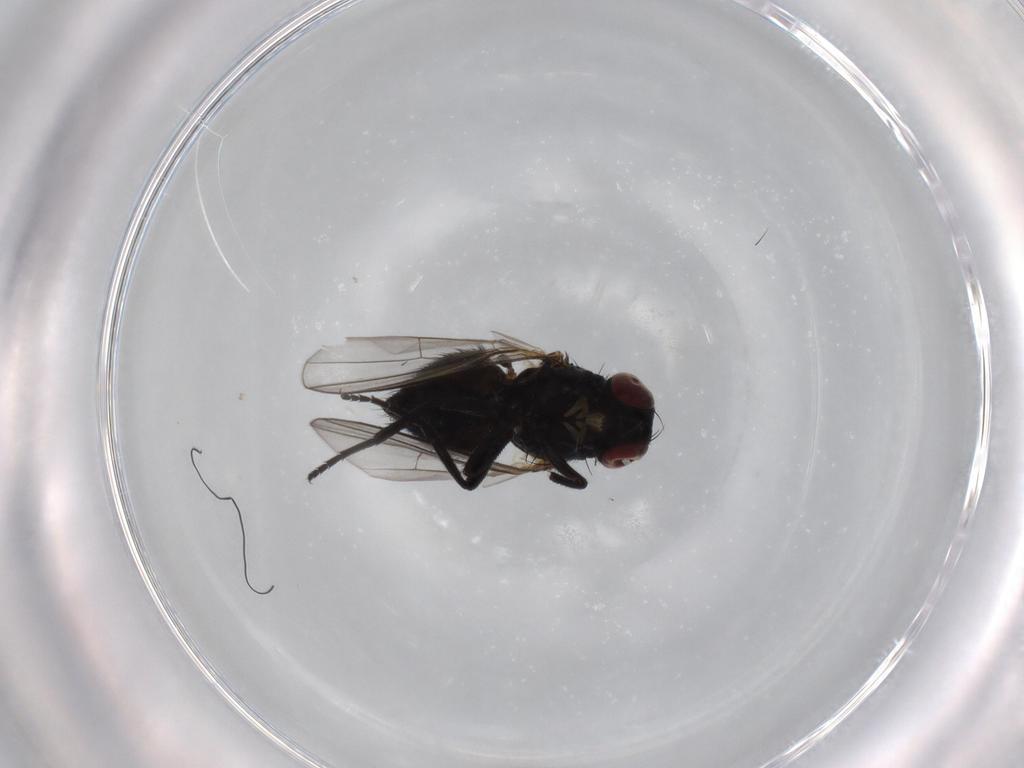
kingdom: Animalia
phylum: Arthropoda
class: Insecta
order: Diptera
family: Agromyzidae
